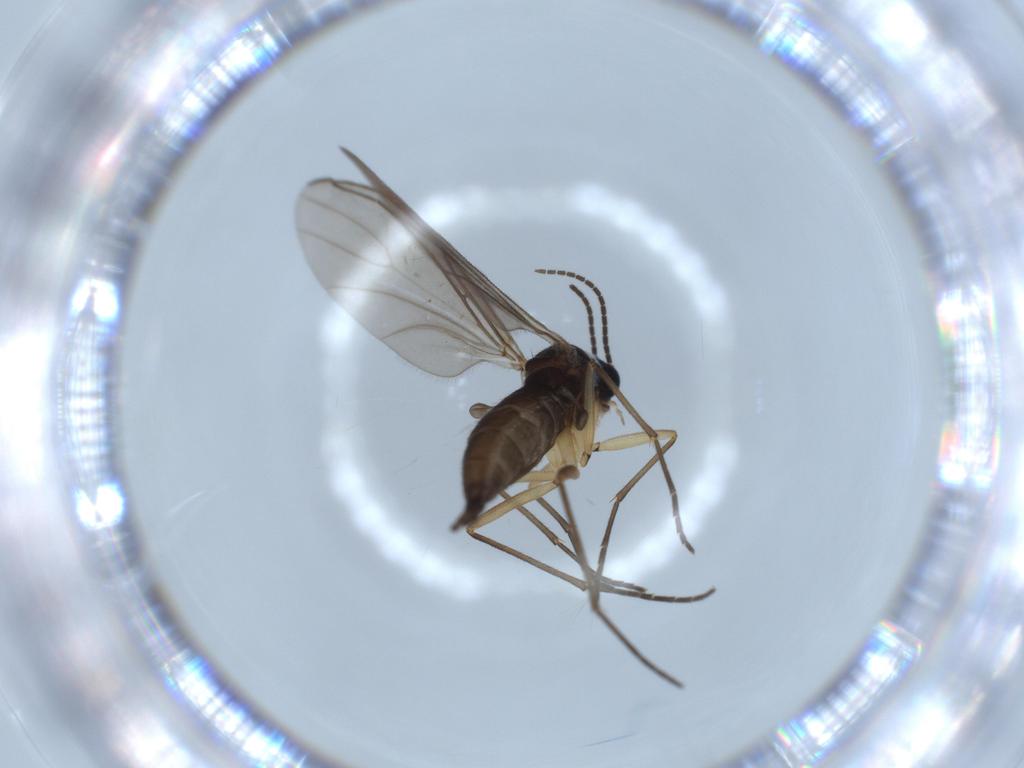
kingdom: Animalia
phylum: Arthropoda
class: Insecta
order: Diptera
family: Sciaridae
